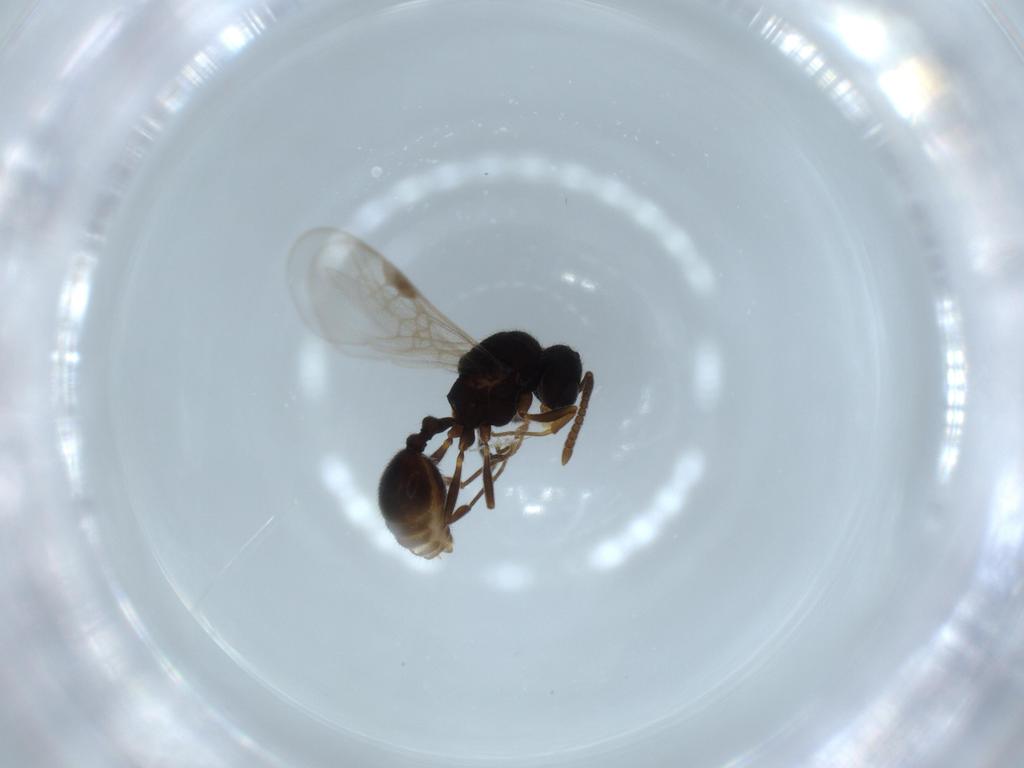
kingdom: Animalia
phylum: Arthropoda
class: Insecta
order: Hymenoptera
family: Formicidae
